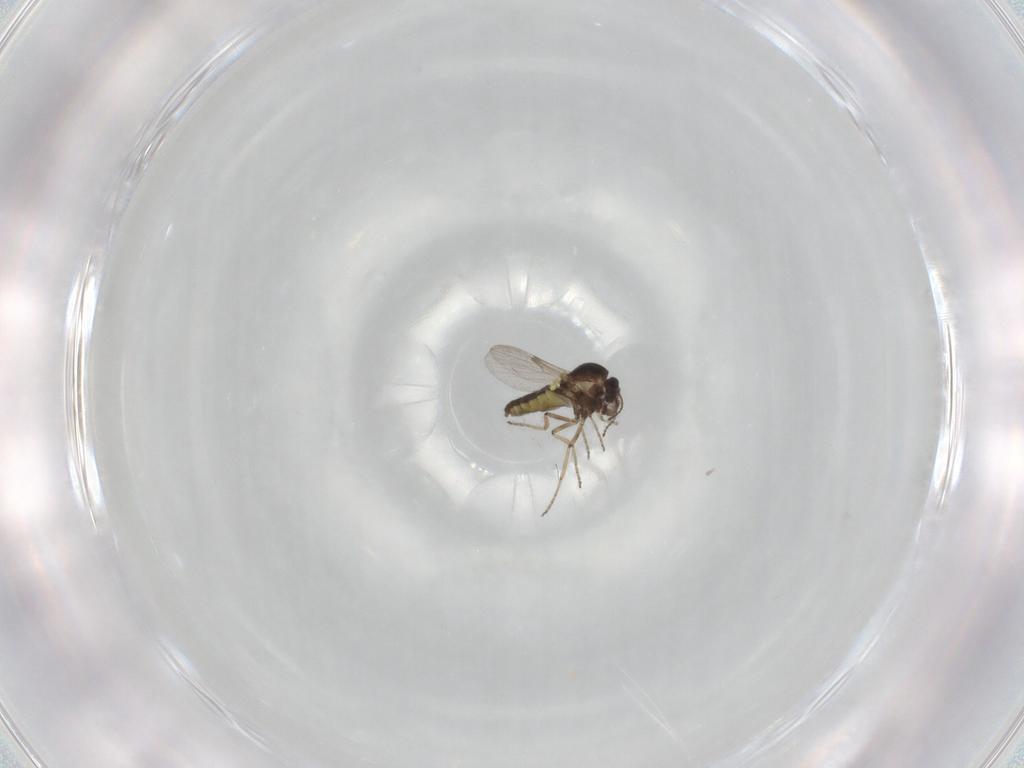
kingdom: Animalia
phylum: Arthropoda
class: Insecta
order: Diptera
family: Ceratopogonidae
